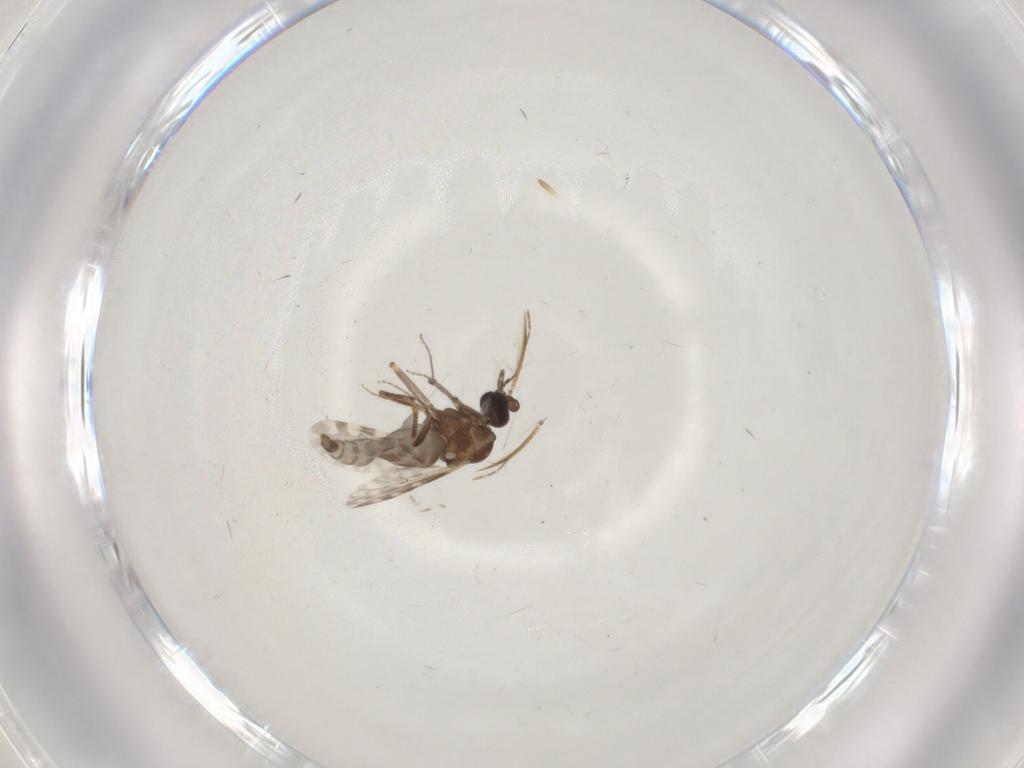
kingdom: Animalia
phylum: Arthropoda
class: Insecta
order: Diptera
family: Ceratopogonidae
